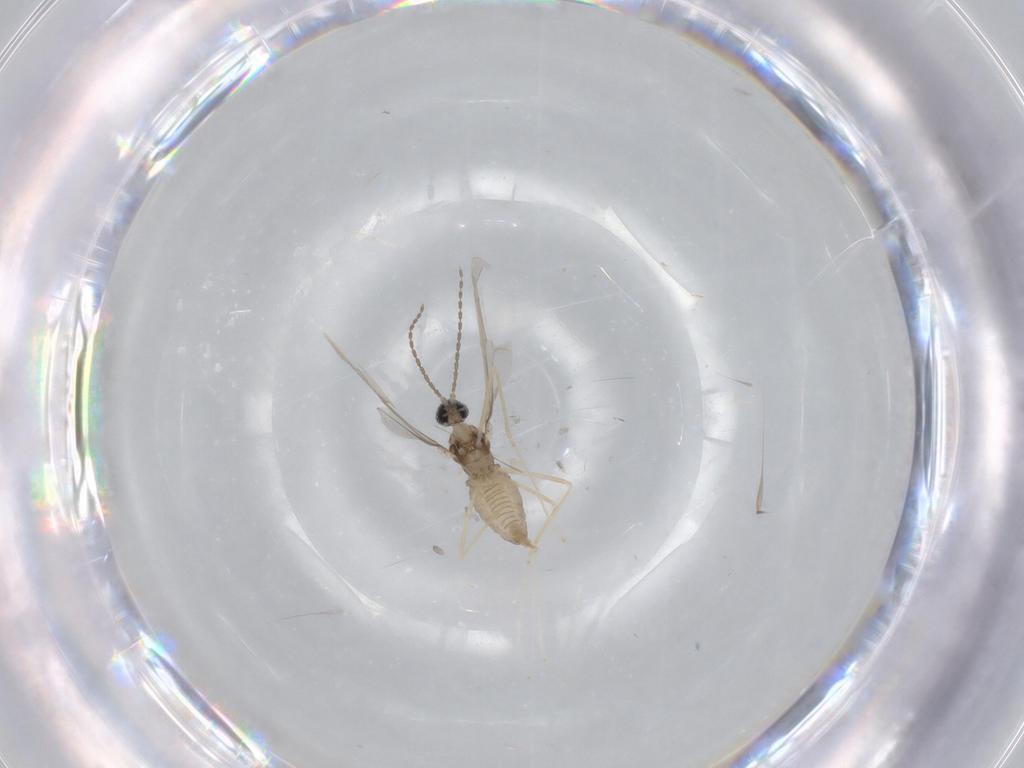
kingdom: Animalia
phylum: Arthropoda
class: Insecta
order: Diptera
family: Cecidomyiidae
